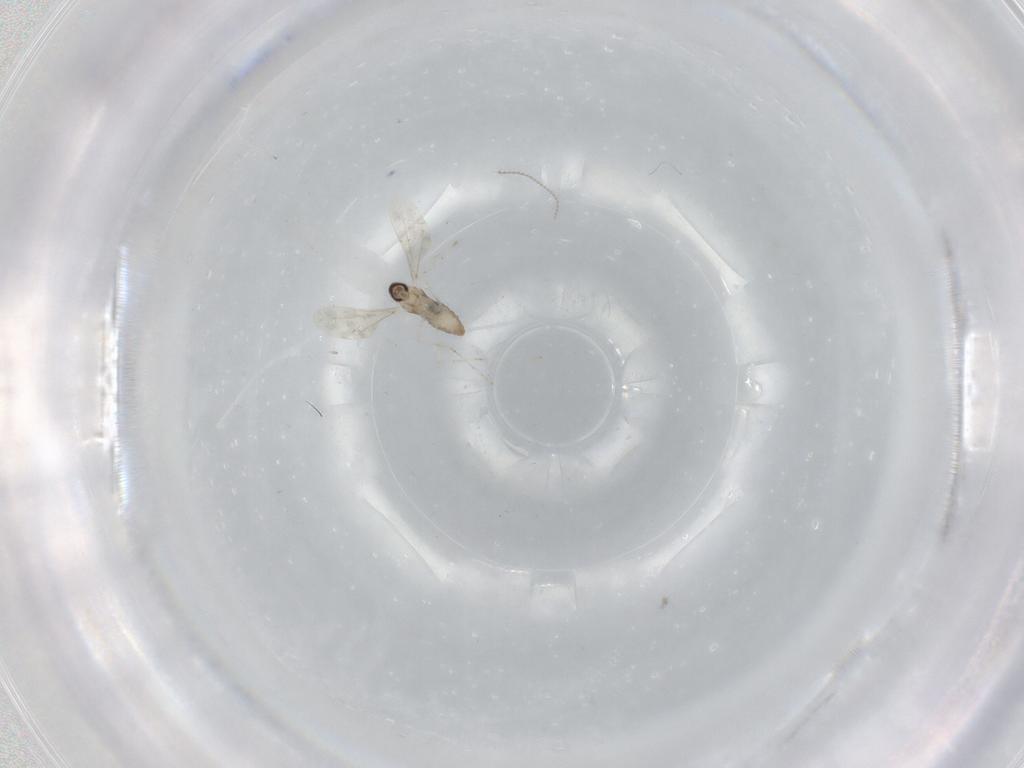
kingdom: Animalia
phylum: Arthropoda
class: Insecta
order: Diptera
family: Cecidomyiidae
